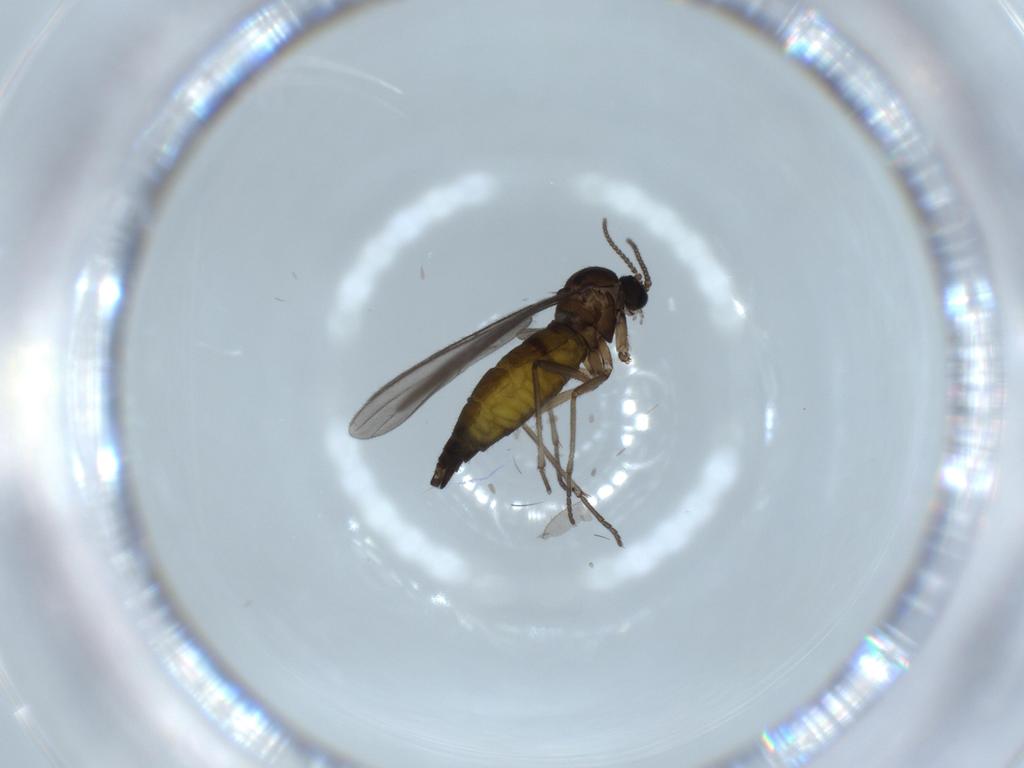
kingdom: Animalia
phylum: Arthropoda
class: Insecta
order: Diptera
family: Sciaridae
